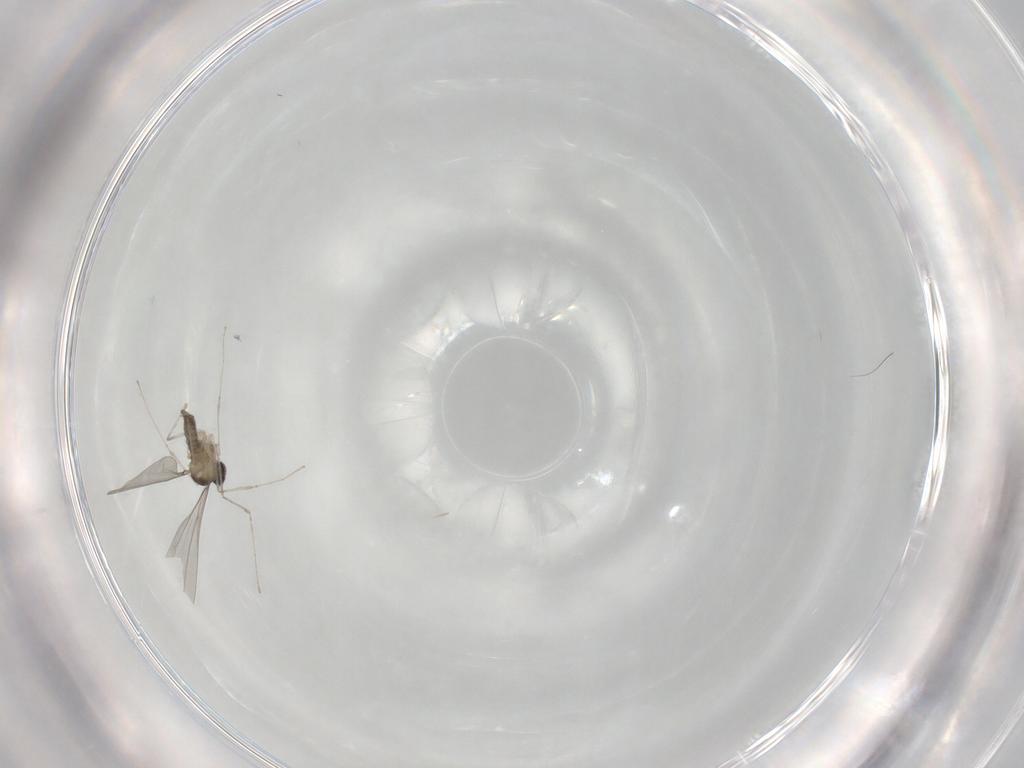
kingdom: Animalia
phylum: Arthropoda
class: Insecta
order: Diptera
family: Cecidomyiidae
